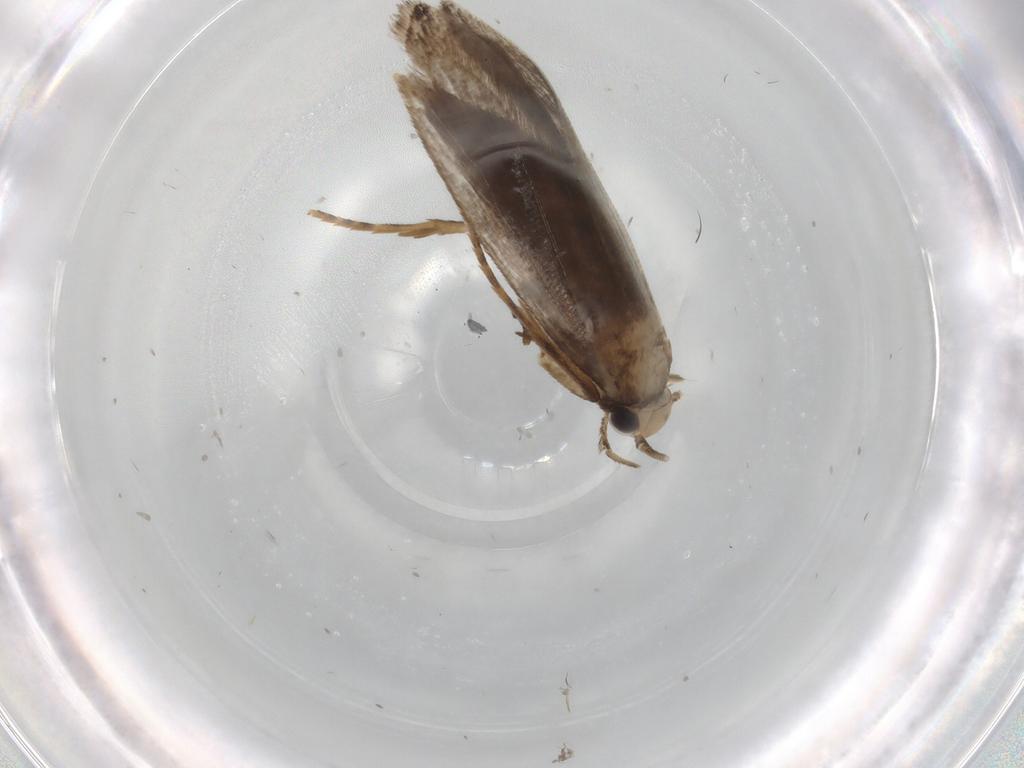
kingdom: Animalia
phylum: Arthropoda
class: Insecta
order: Lepidoptera
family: Tineidae
